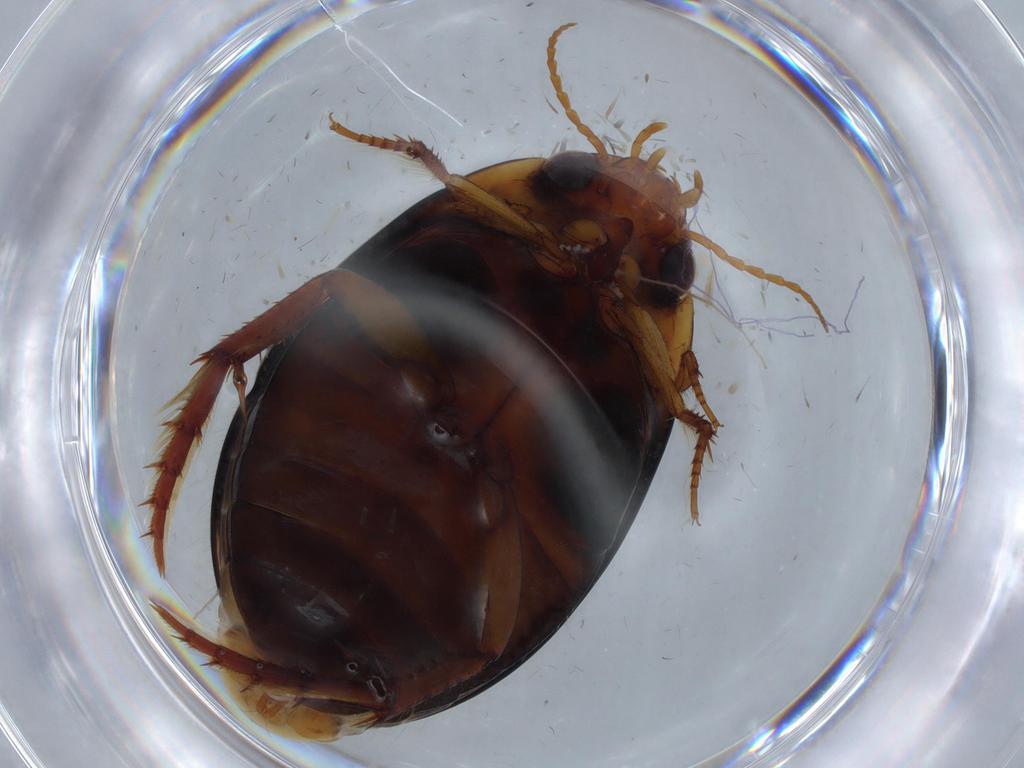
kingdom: Animalia
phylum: Arthropoda
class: Insecta
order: Coleoptera
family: Dytiscidae
